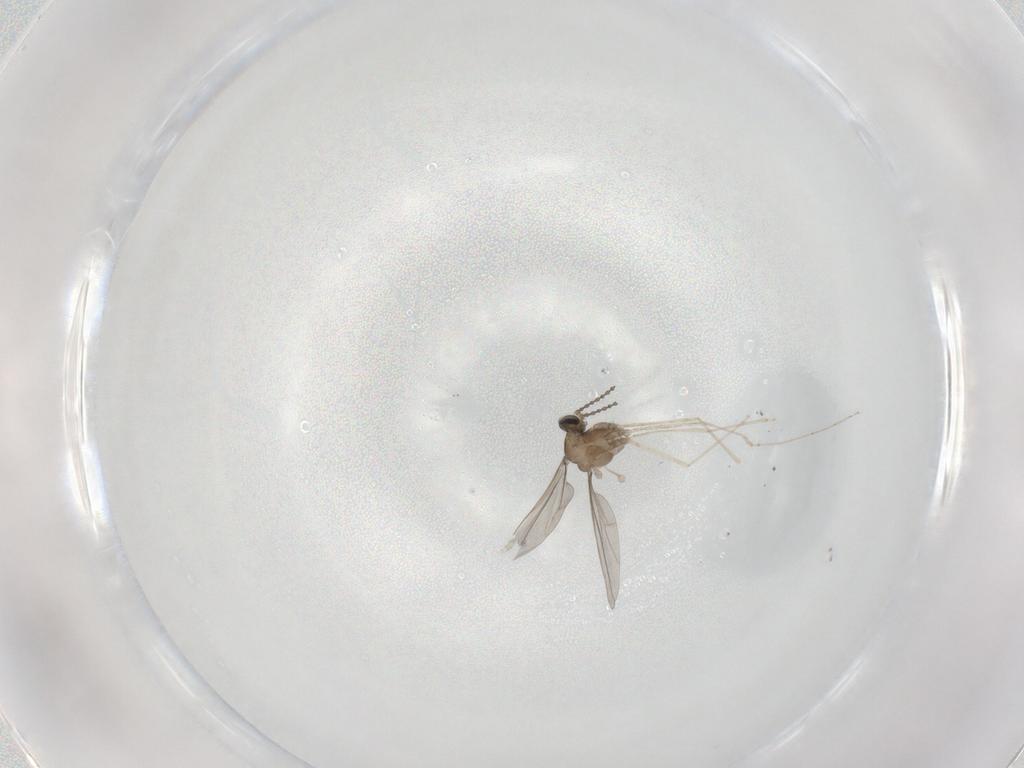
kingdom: Animalia
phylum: Arthropoda
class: Insecta
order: Diptera
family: Cecidomyiidae
